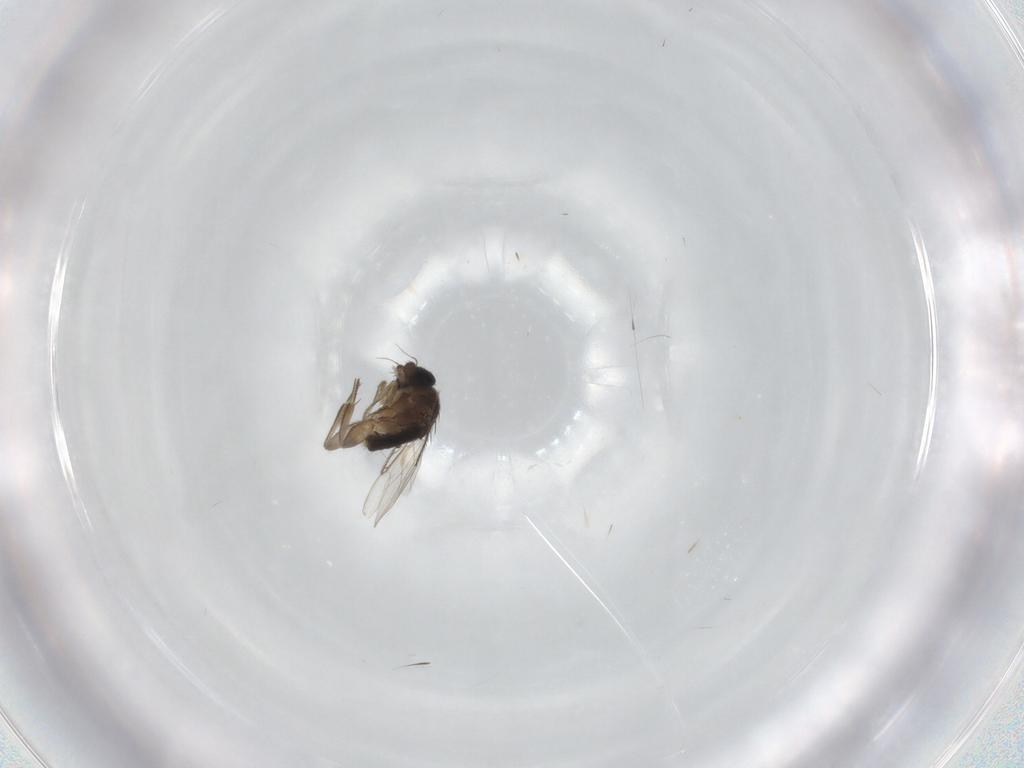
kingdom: Animalia
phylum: Arthropoda
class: Insecta
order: Diptera
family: Phoridae
